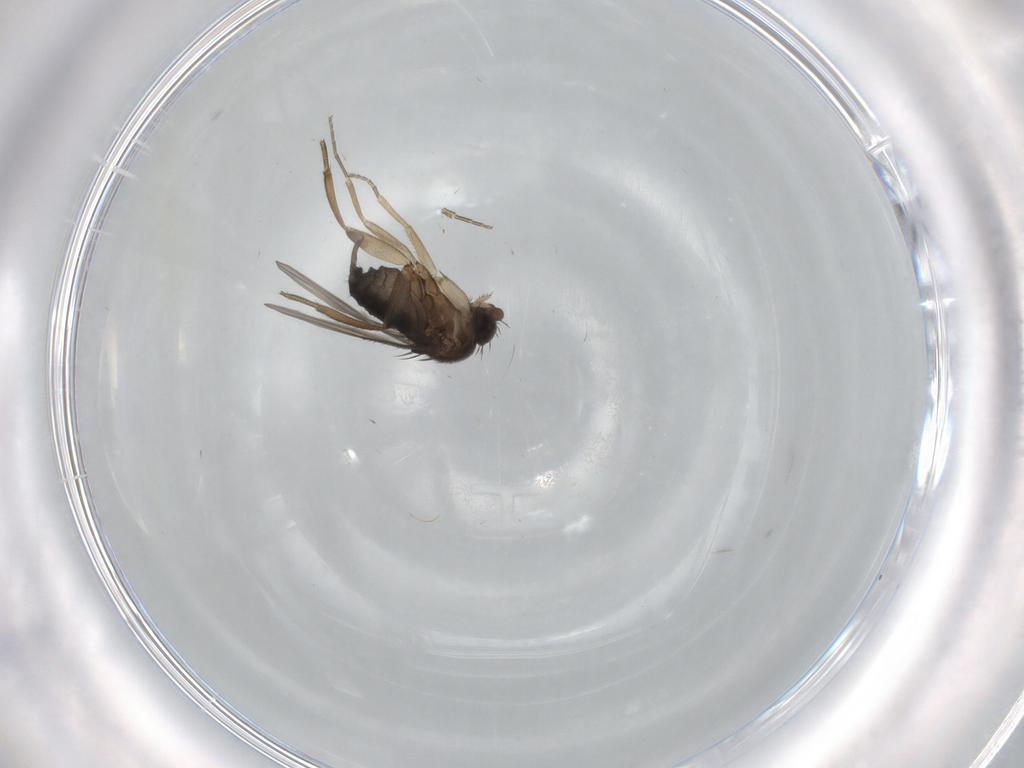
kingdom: Animalia
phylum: Arthropoda
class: Insecta
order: Diptera
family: Phoridae
